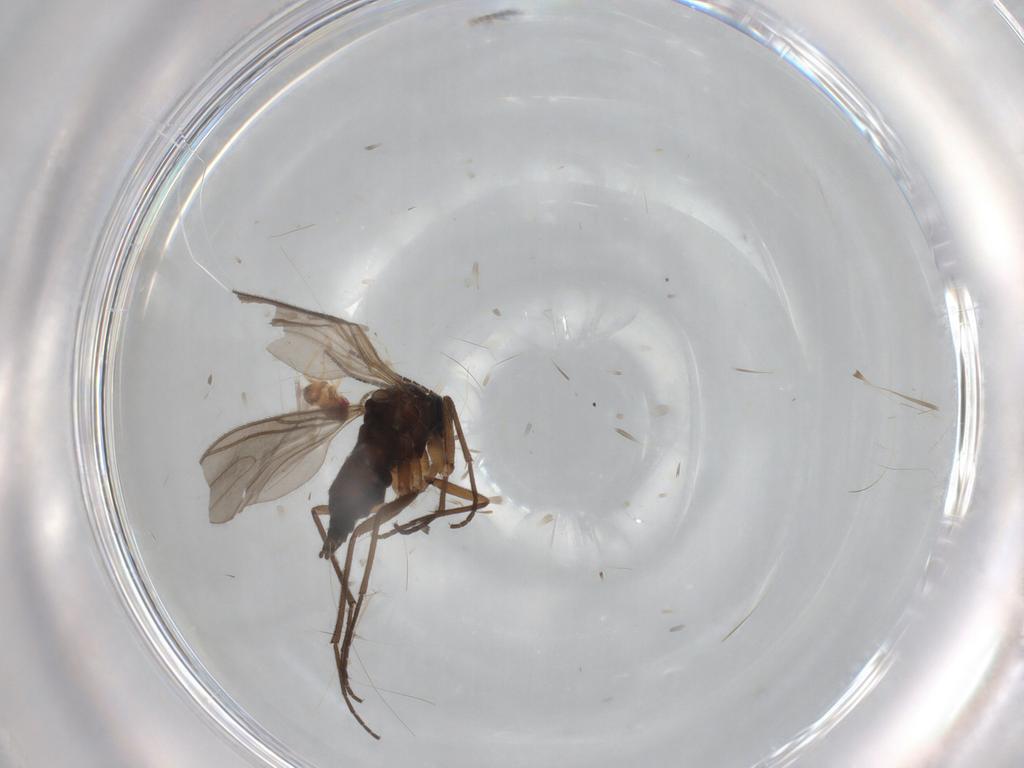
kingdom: Animalia
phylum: Arthropoda
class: Insecta
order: Diptera
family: Sciaridae
